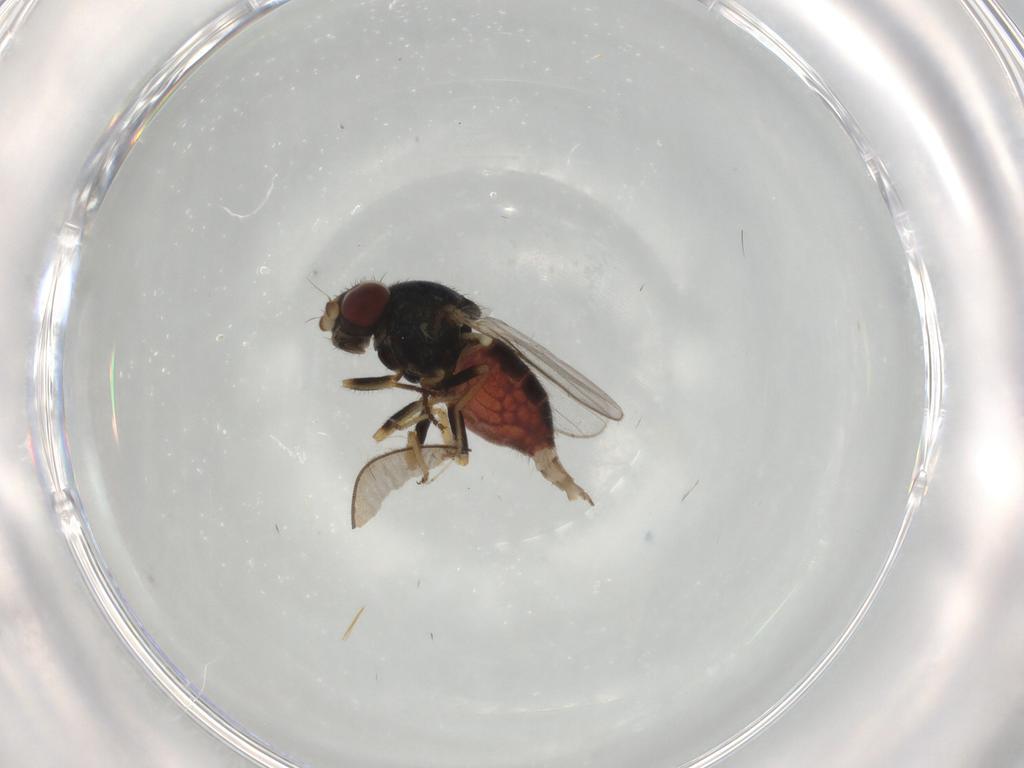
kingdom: Animalia
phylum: Arthropoda
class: Insecta
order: Diptera
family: Chloropidae
